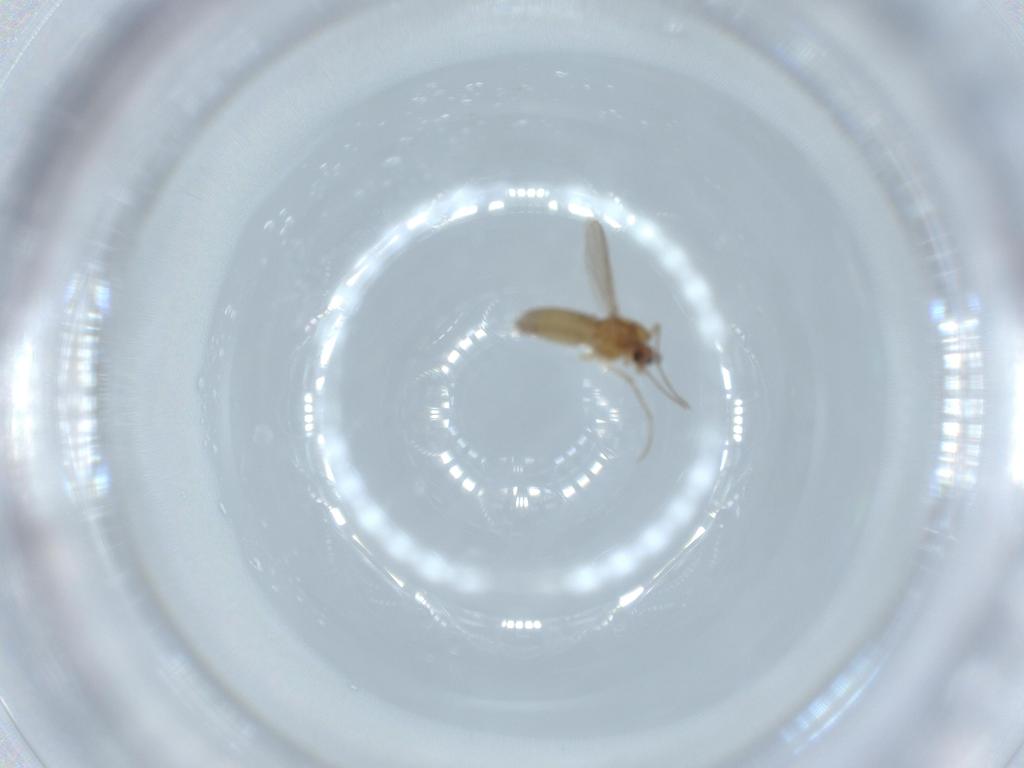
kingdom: Animalia
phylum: Arthropoda
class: Insecta
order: Diptera
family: Chironomidae
